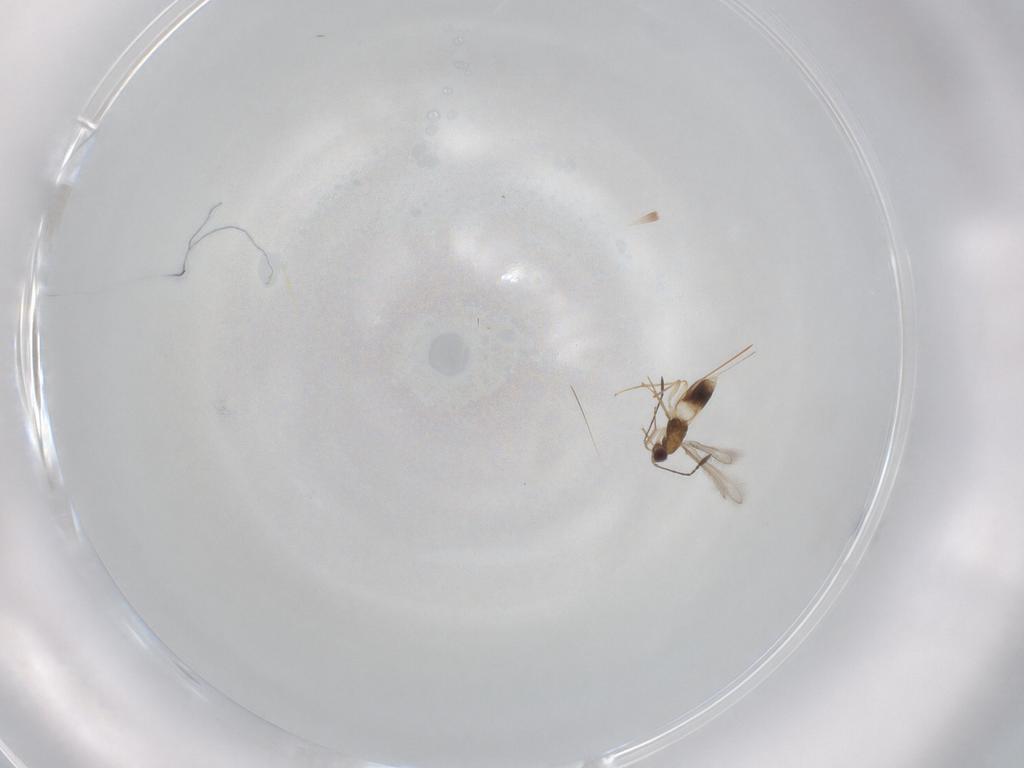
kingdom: Animalia
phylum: Arthropoda
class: Insecta
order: Hymenoptera
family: Mymaridae
